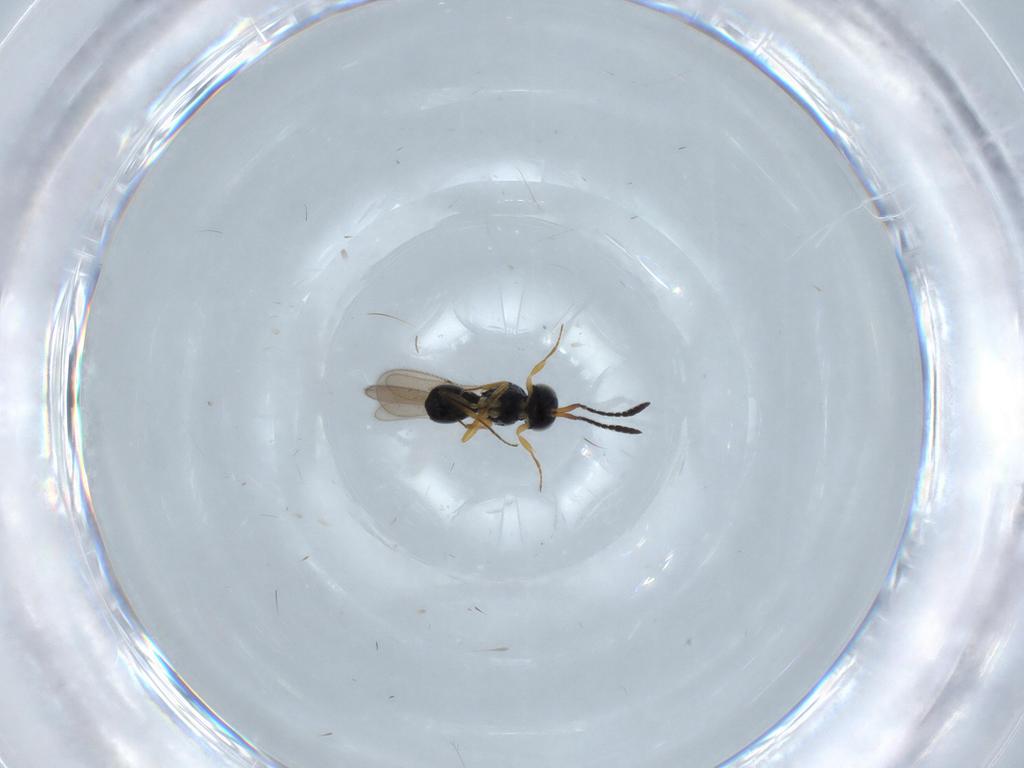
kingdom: Animalia
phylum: Arthropoda
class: Insecta
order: Hymenoptera
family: Scelionidae
